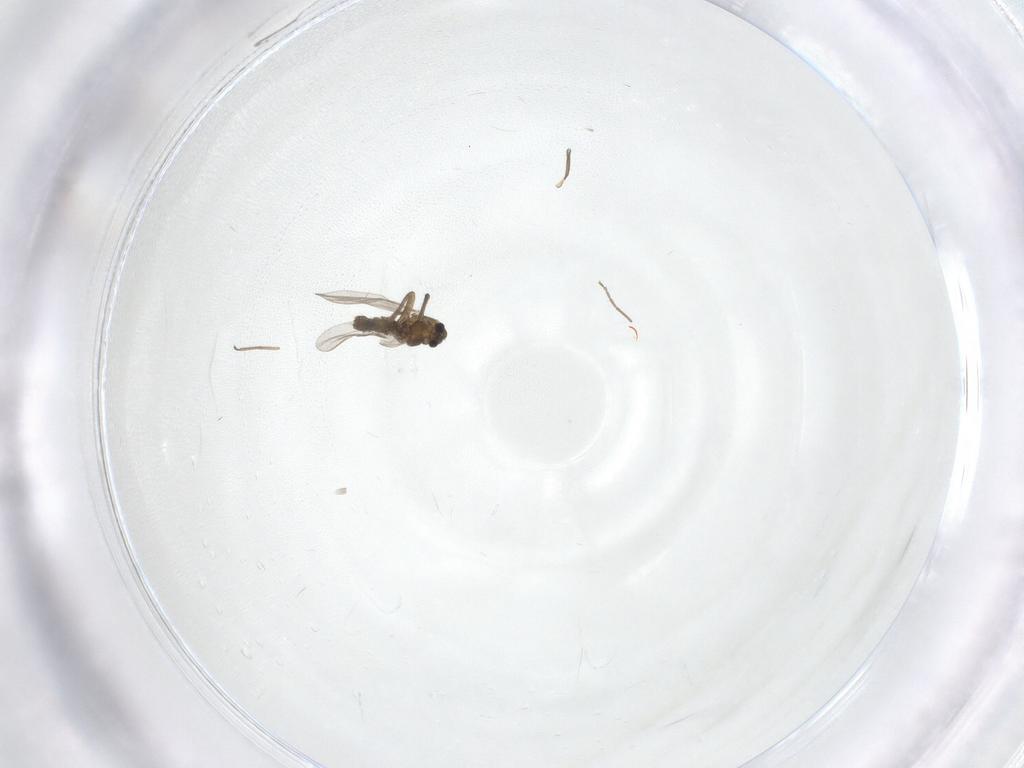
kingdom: Animalia
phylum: Arthropoda
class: Insecta
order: Diptera
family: Chironomidae
